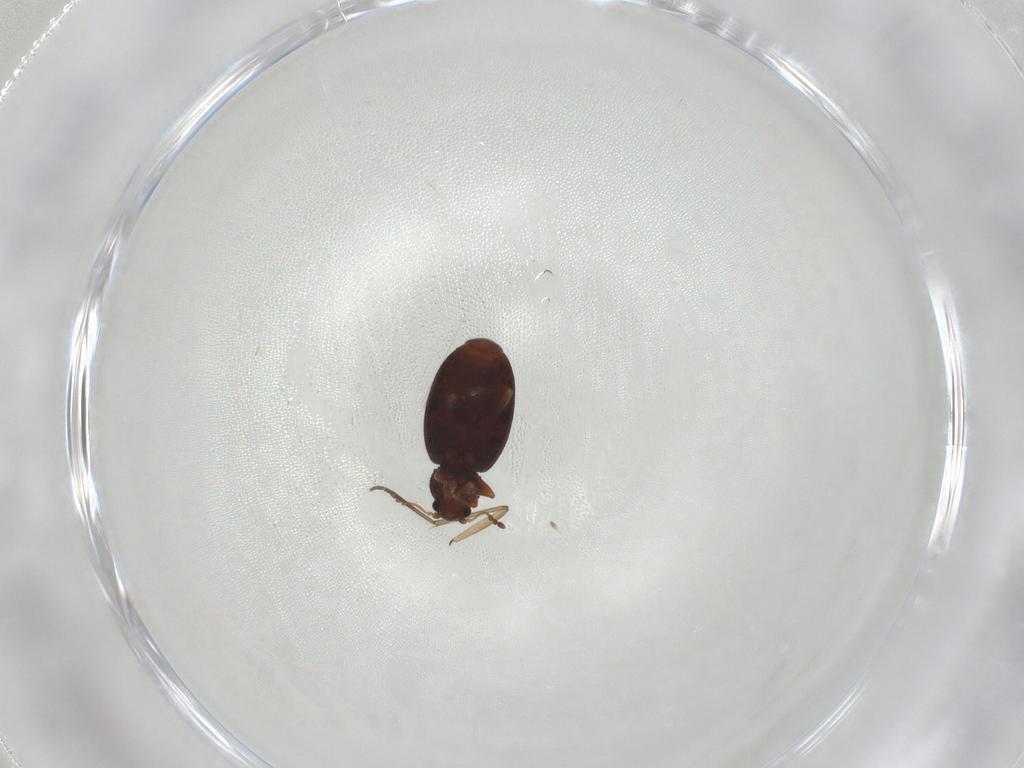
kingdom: Animalia
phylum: Arthropoda
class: Insecta
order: Coleoptera
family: Latridiidae
